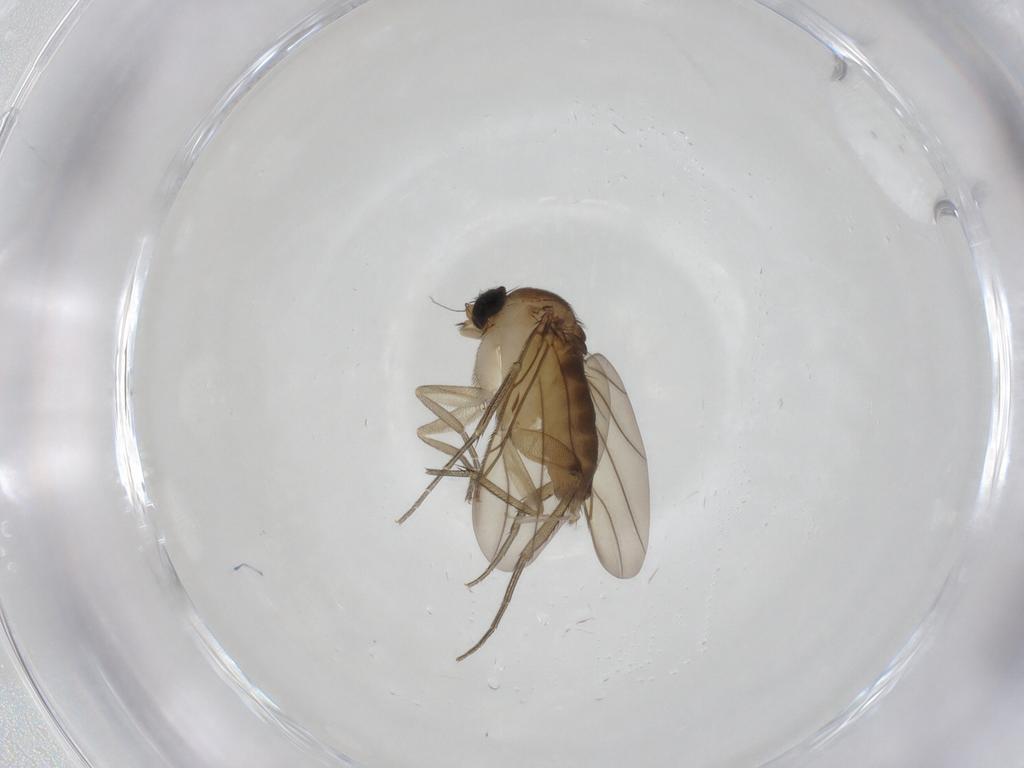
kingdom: Animalia
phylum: Arthropoda
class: Insecta
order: Diptera
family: Phoridae
